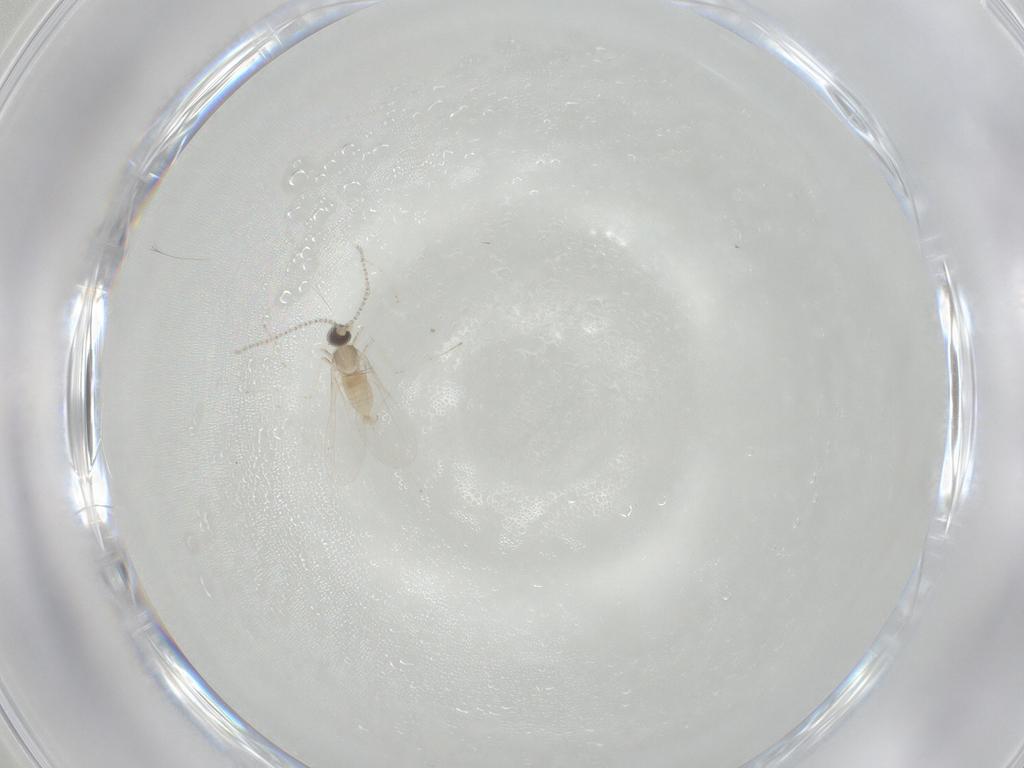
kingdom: Animalia
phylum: Arthropoda
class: Insecta
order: Diptera
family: Cecidomyiidae
